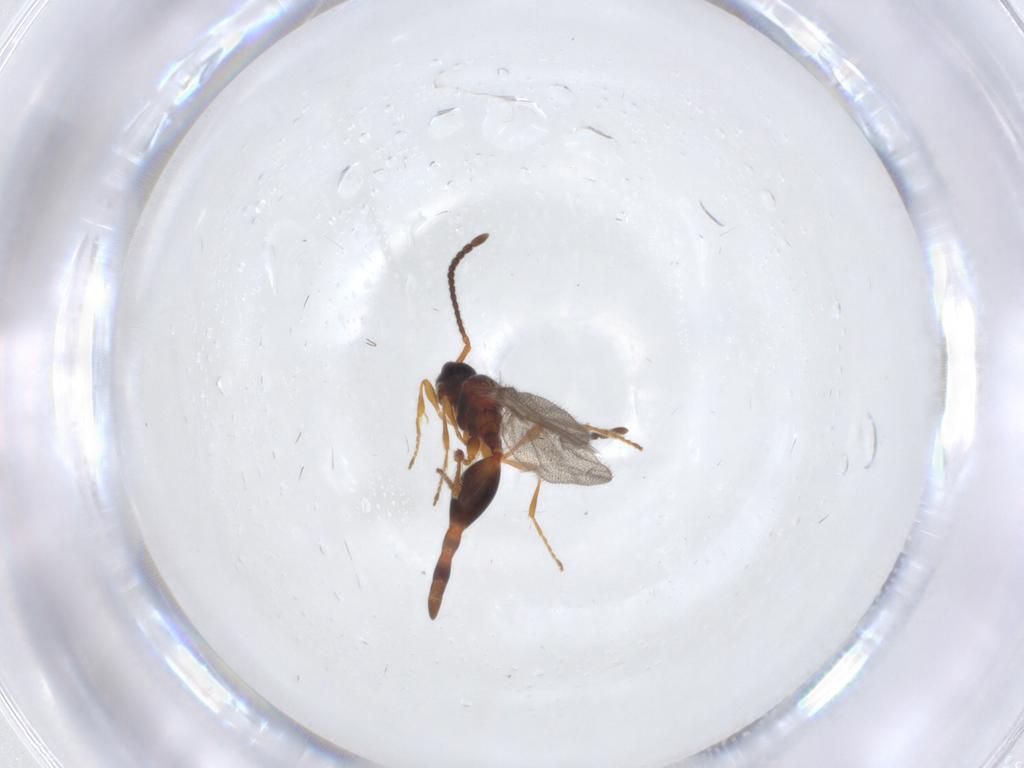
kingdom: Animalia
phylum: Arthropoda
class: Insecta
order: Hymenoptera
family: Diapriidae
